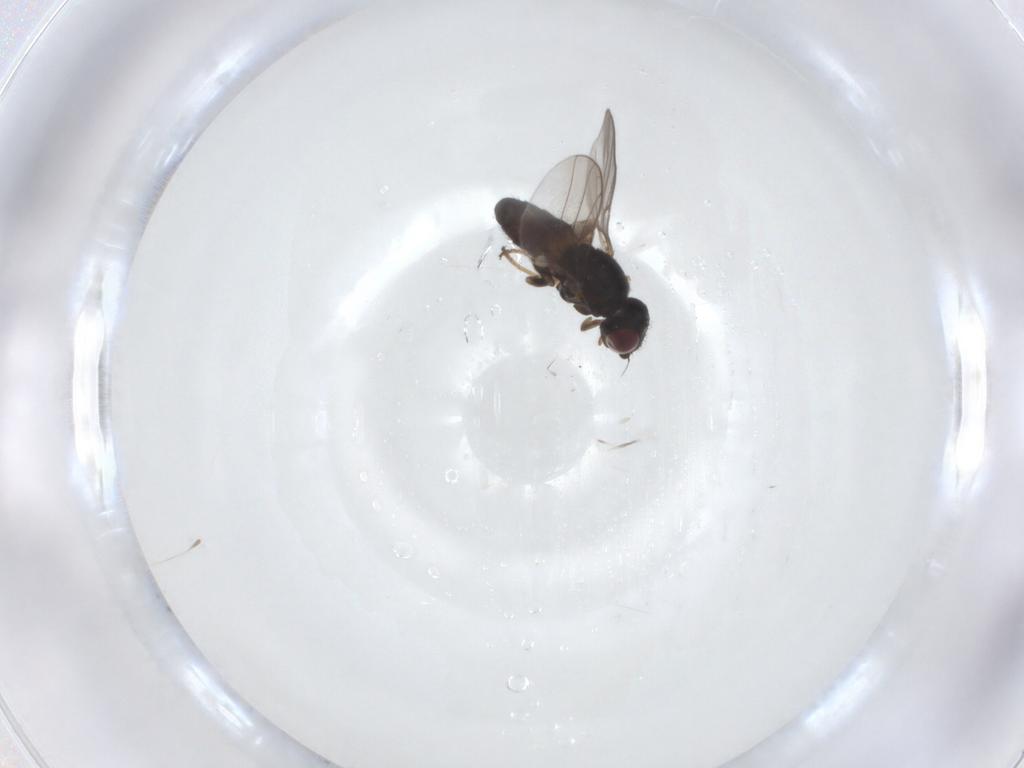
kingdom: Animalia
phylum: Arthropoda
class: Insecta
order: Diptera
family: Chloropidae
